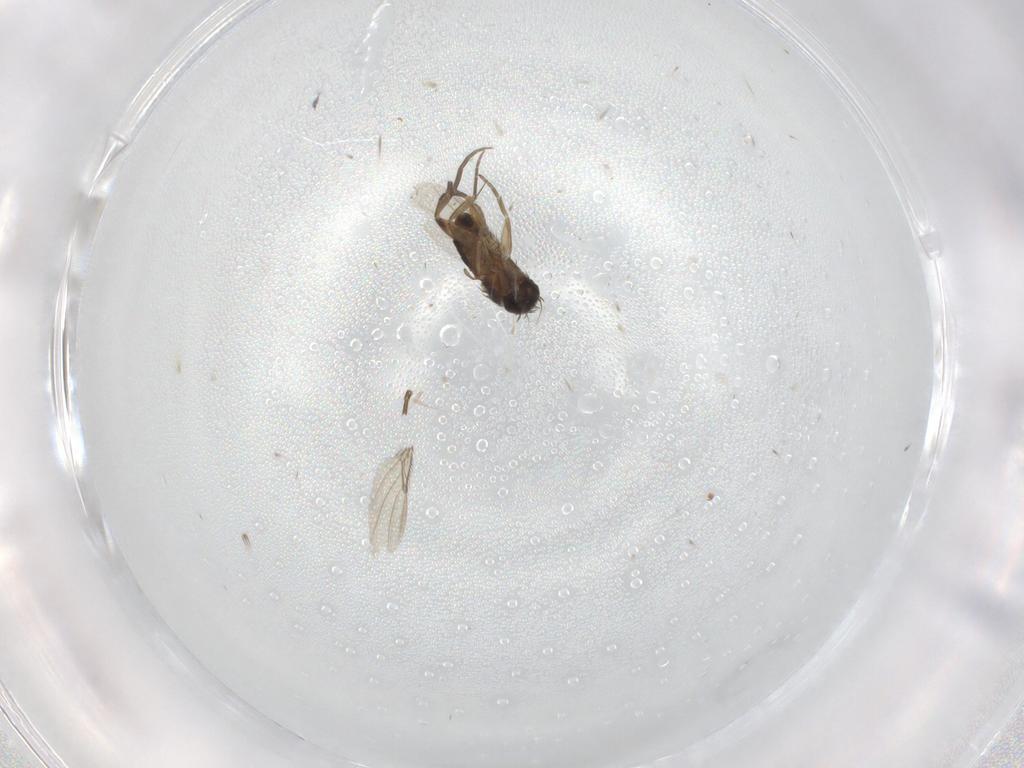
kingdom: Animalia
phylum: Arthropoda
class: Insecta
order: Diptera
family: Phoridae
